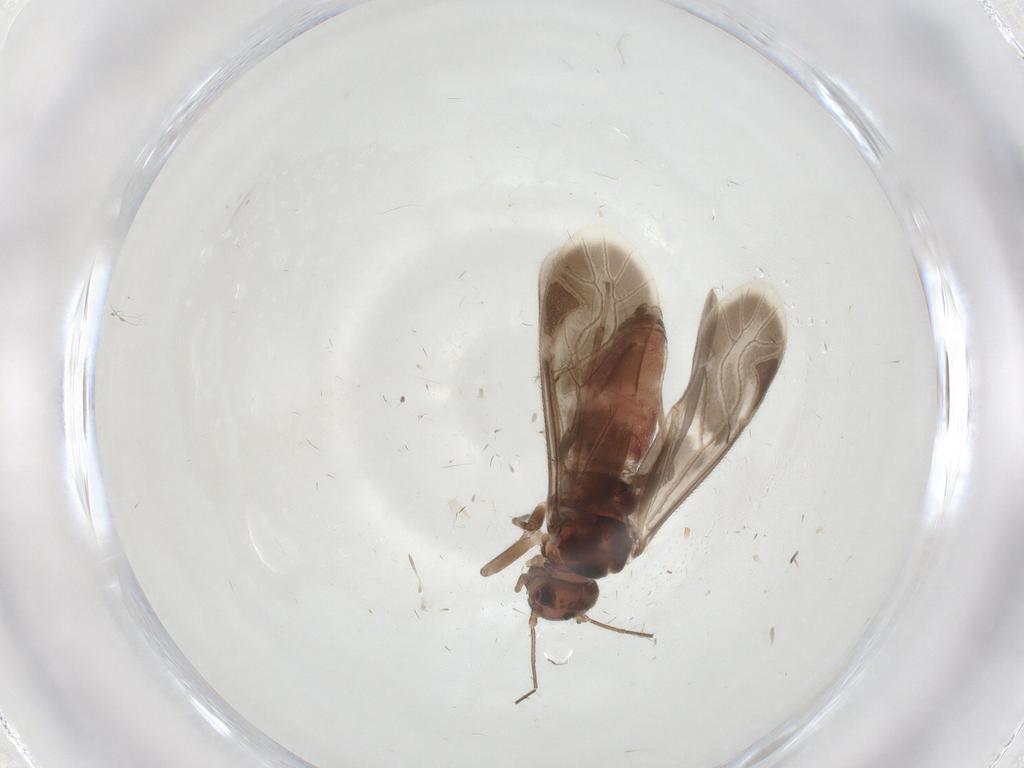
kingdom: Animalia
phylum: Arthropoda
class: Insecta
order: Psocodea
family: Caeciliusidae
